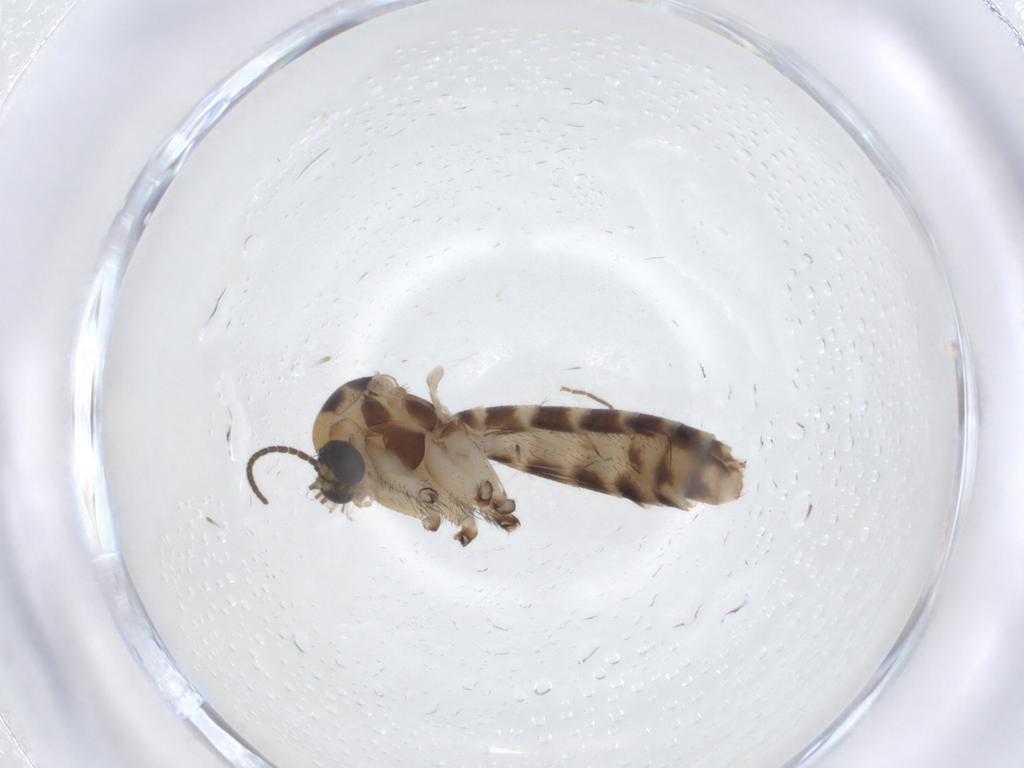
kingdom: Animalia
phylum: Arthropoda
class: Insecta
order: Diptera
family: Mycetophilidae
